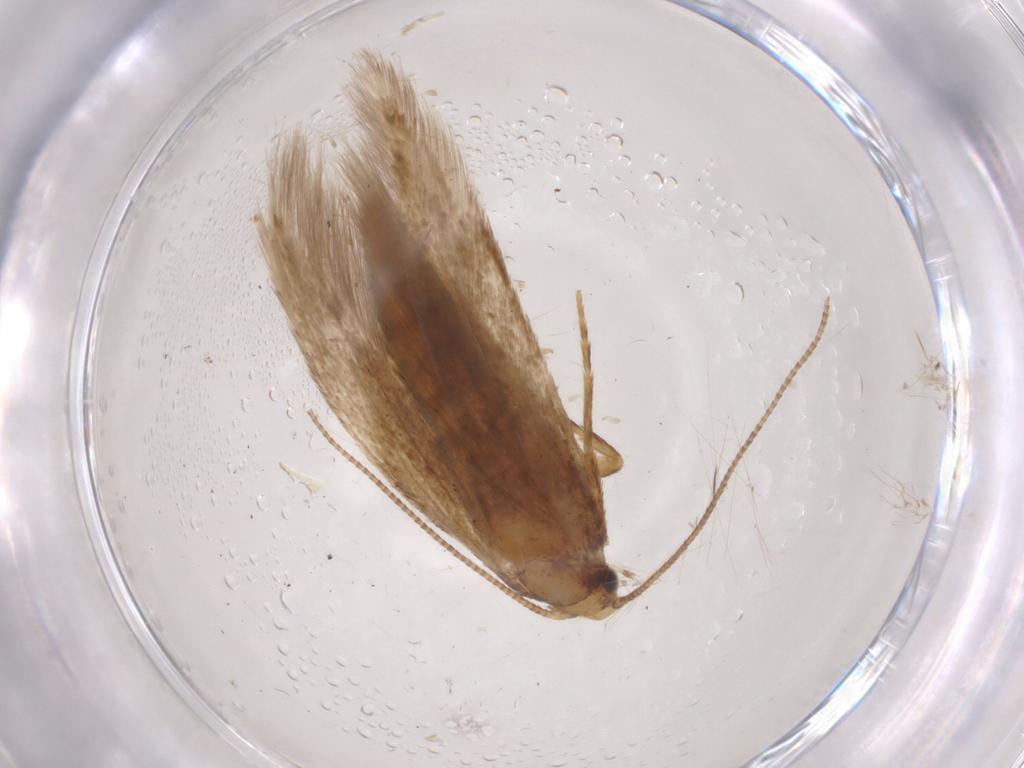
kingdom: Animalia
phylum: Arthropoda
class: Insecta
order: Lepidoptera
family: Tineidae
